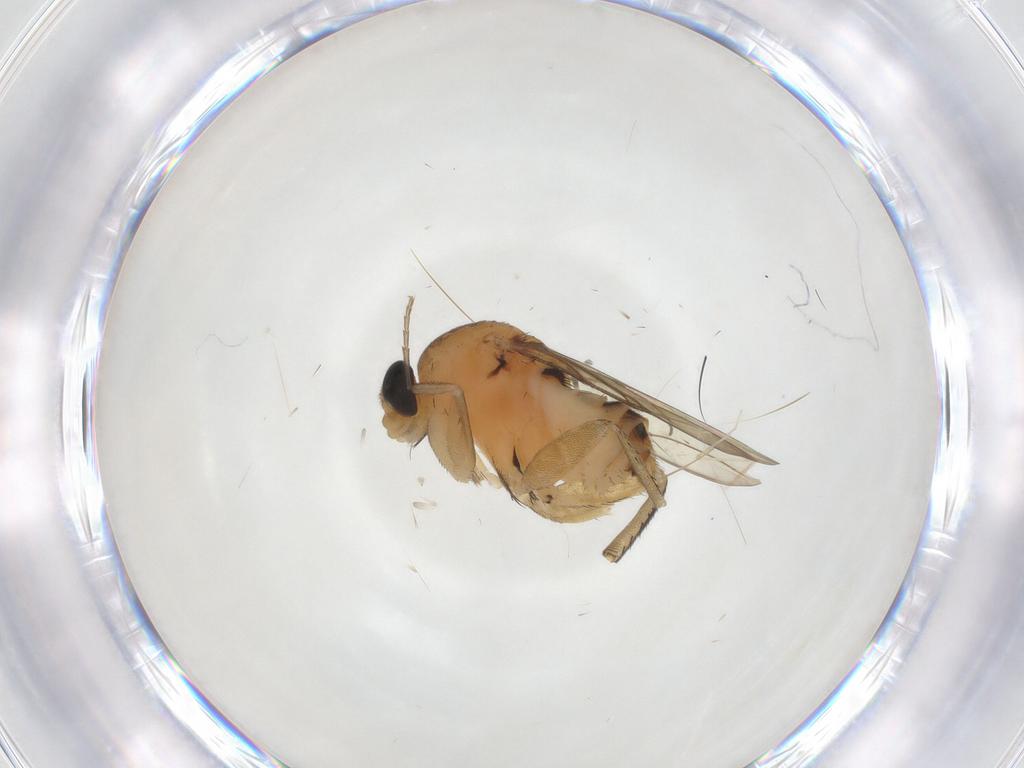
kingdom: Animalia
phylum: Arthropoda
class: Insecta
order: Diptera
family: Phoridae
